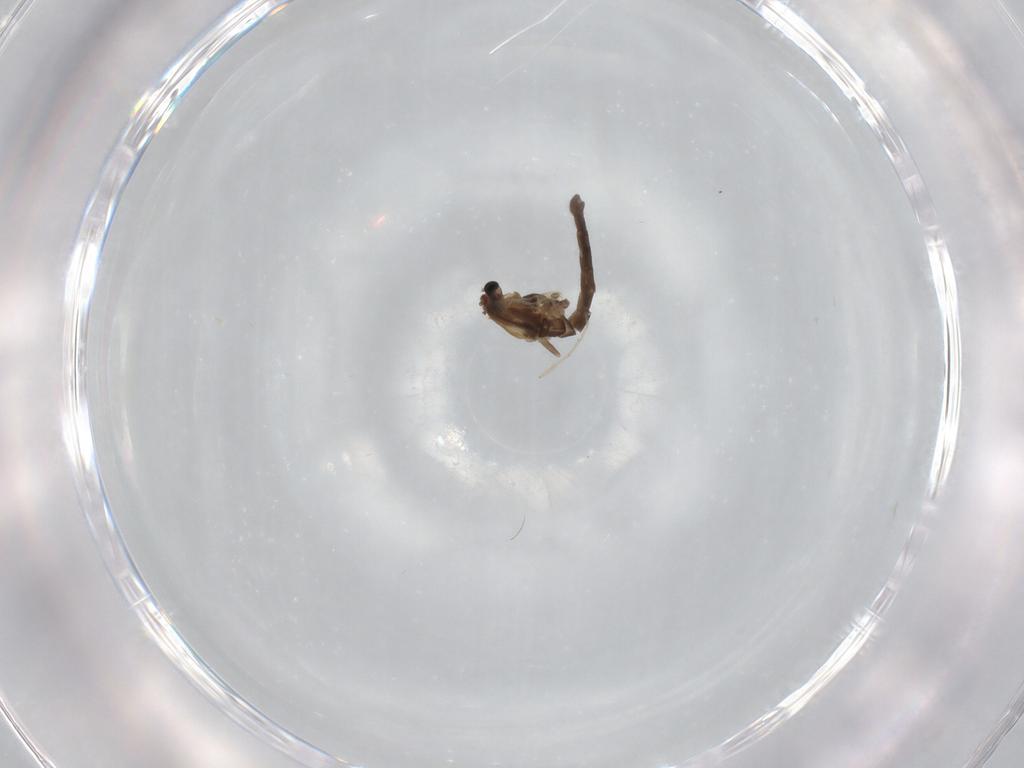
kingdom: Animalia
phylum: Arthropoda
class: Insecta
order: Diptera
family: Chironomidae
